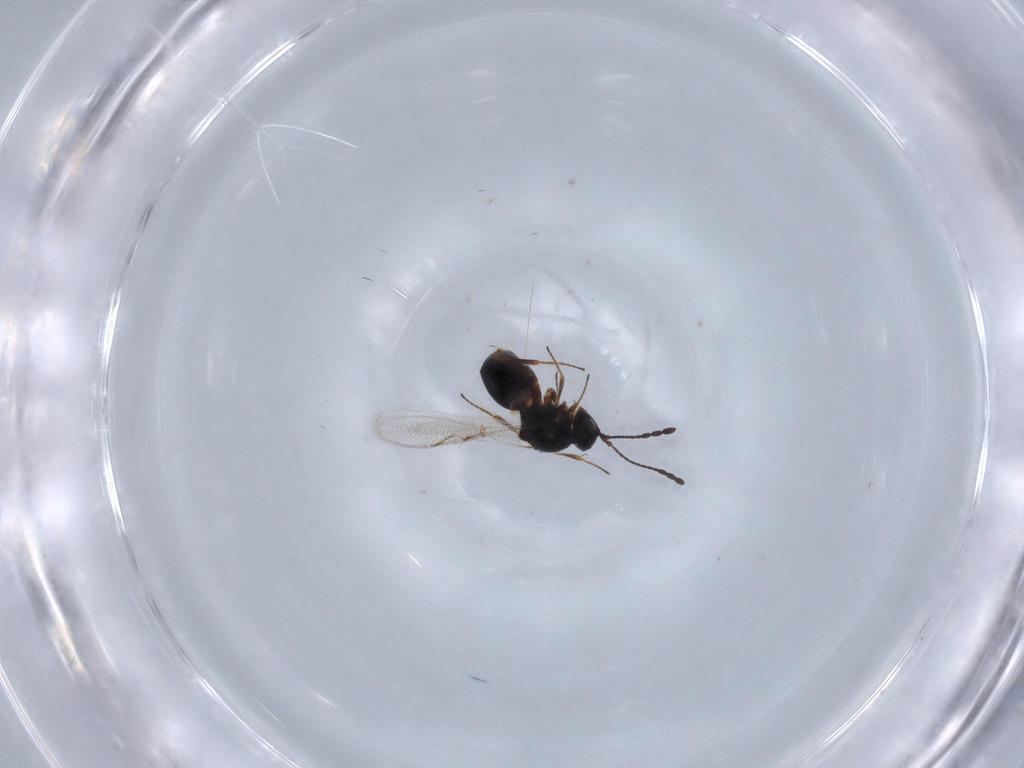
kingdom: Animalia
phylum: Arthropoda
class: Insecta
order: Hymenoptera
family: Figitidae
